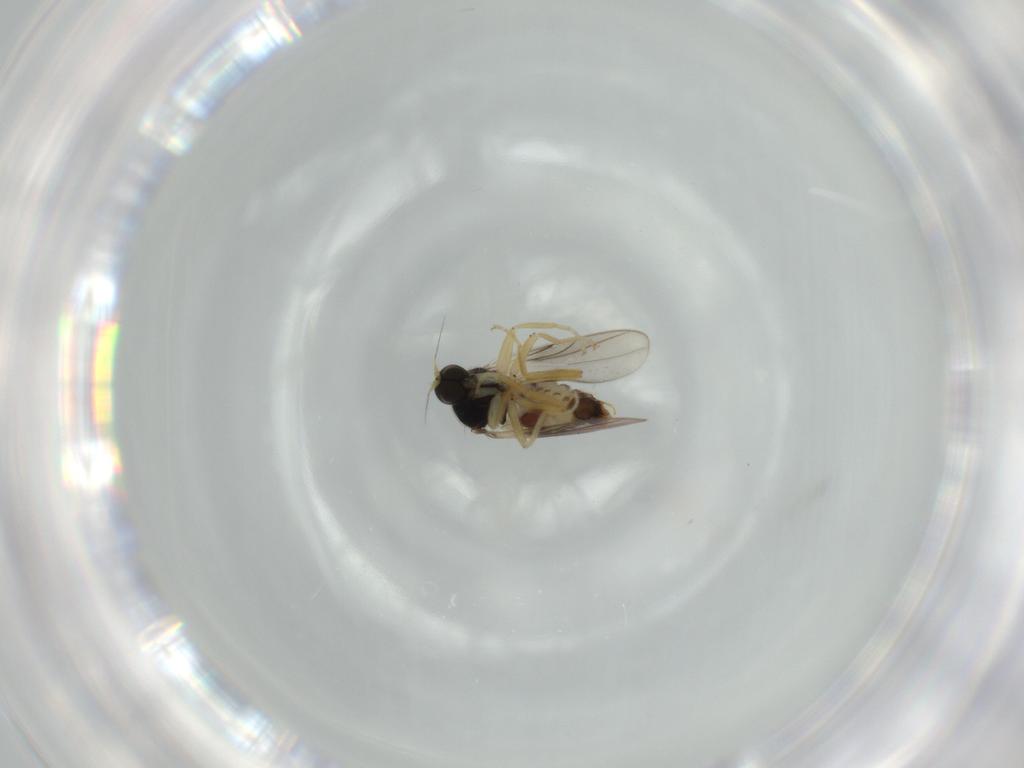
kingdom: Animalia
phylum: Arthropoda
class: Insecta
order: Diptera
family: Hybotidae
